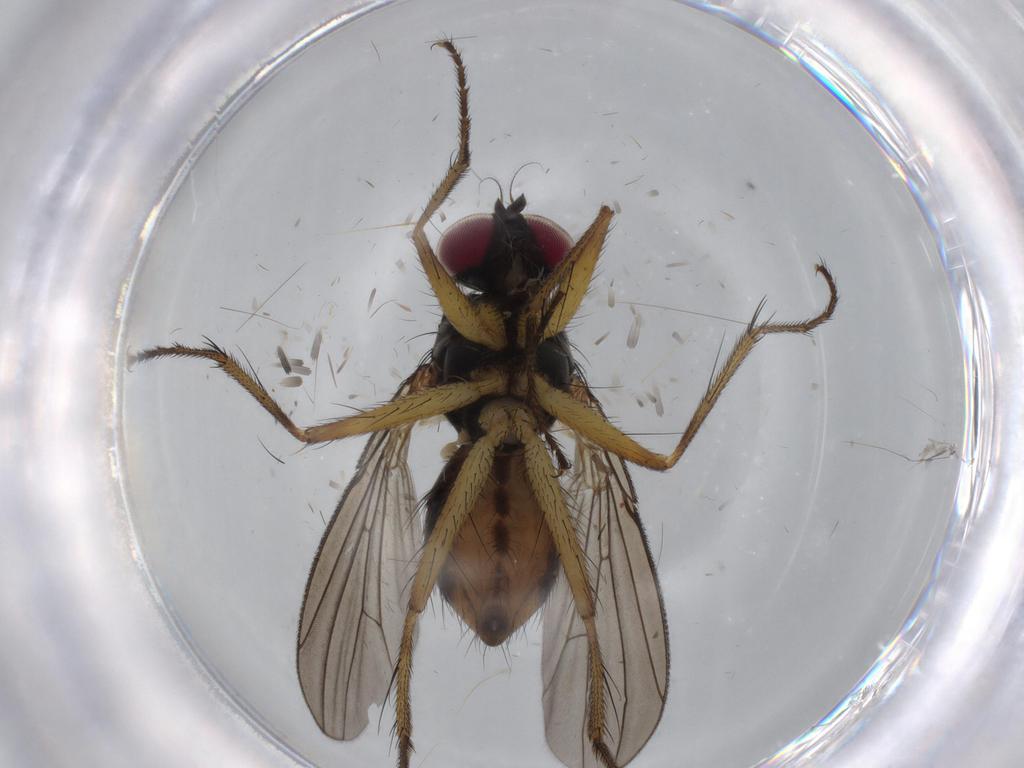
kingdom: Animalia
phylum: Arthropoda
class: Insecta
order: Diptera
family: Anthomyiidae
